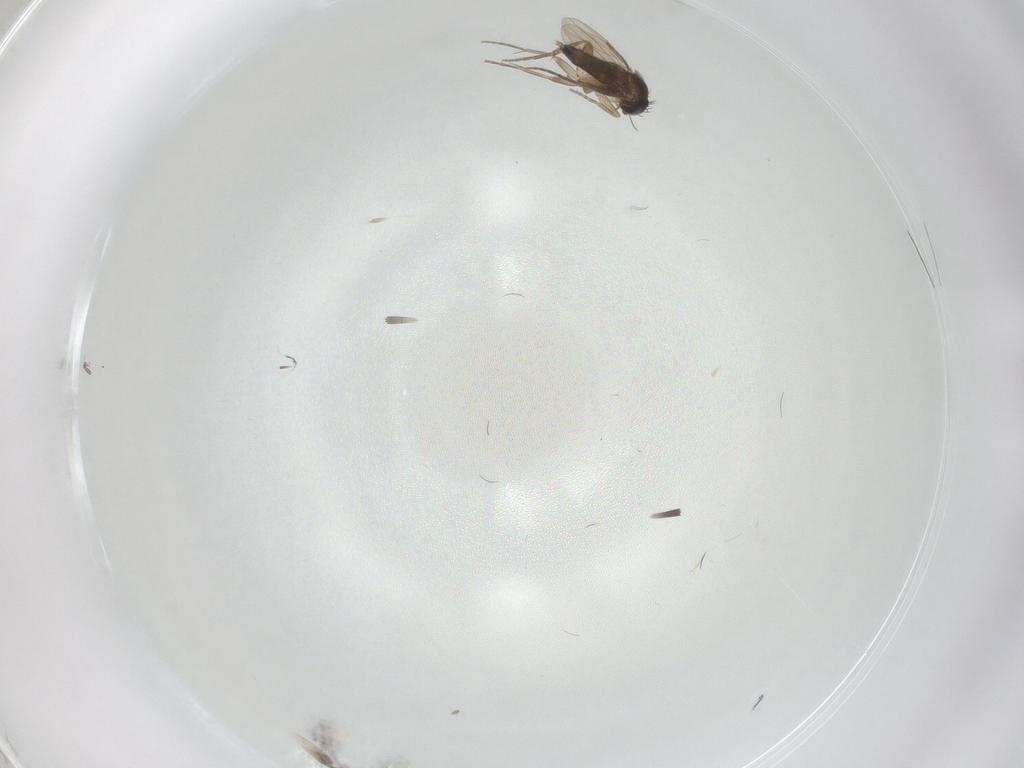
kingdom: Animalia
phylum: Arthropoda
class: Insecta
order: Diptera
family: Phoridae
